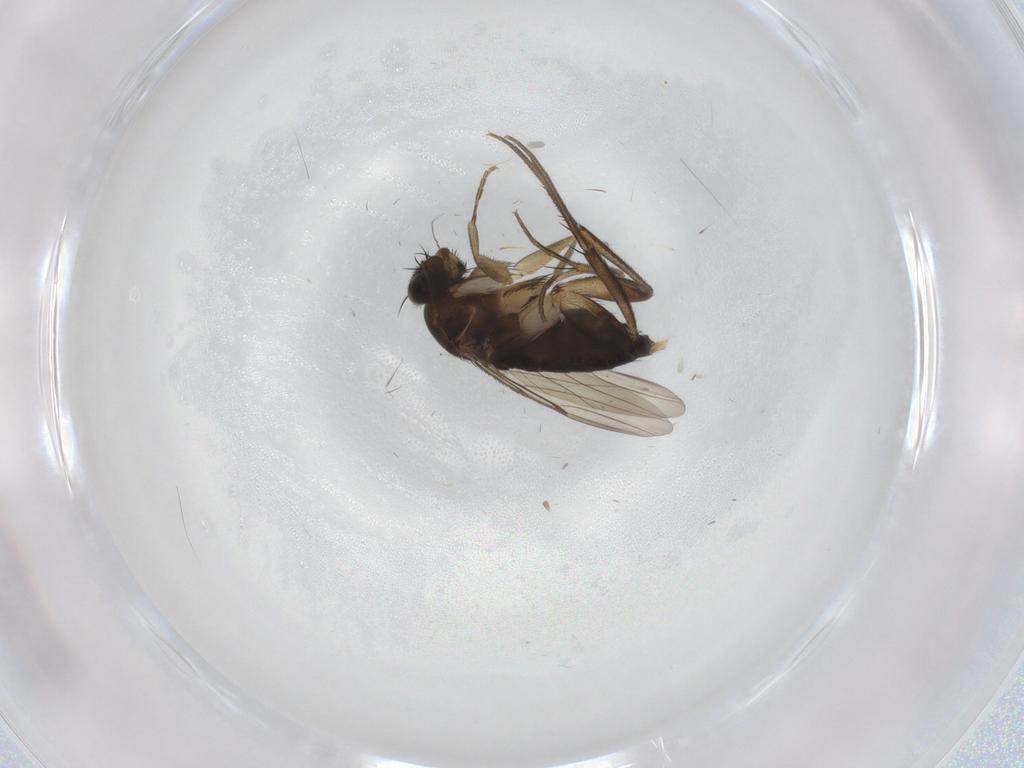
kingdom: Animalia
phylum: Arthropoda
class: Insecta
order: Diptera
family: Phoridae
